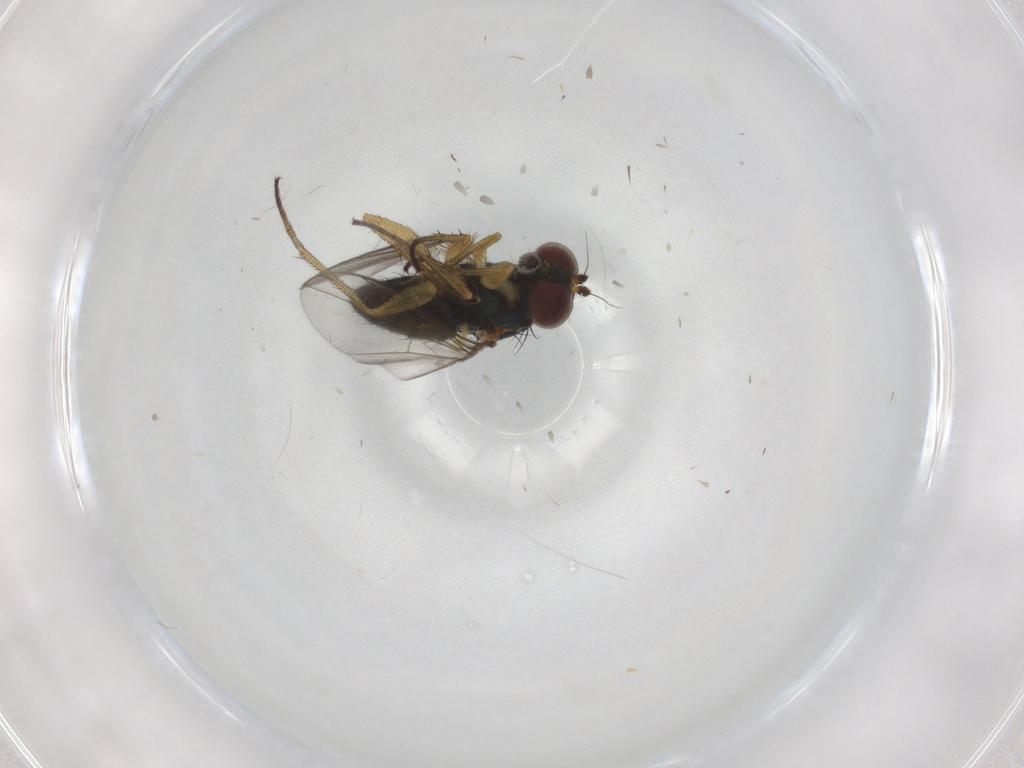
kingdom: Animalia
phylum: Arthropoda
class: Insecta
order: Diptera
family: Dolichopodidae
